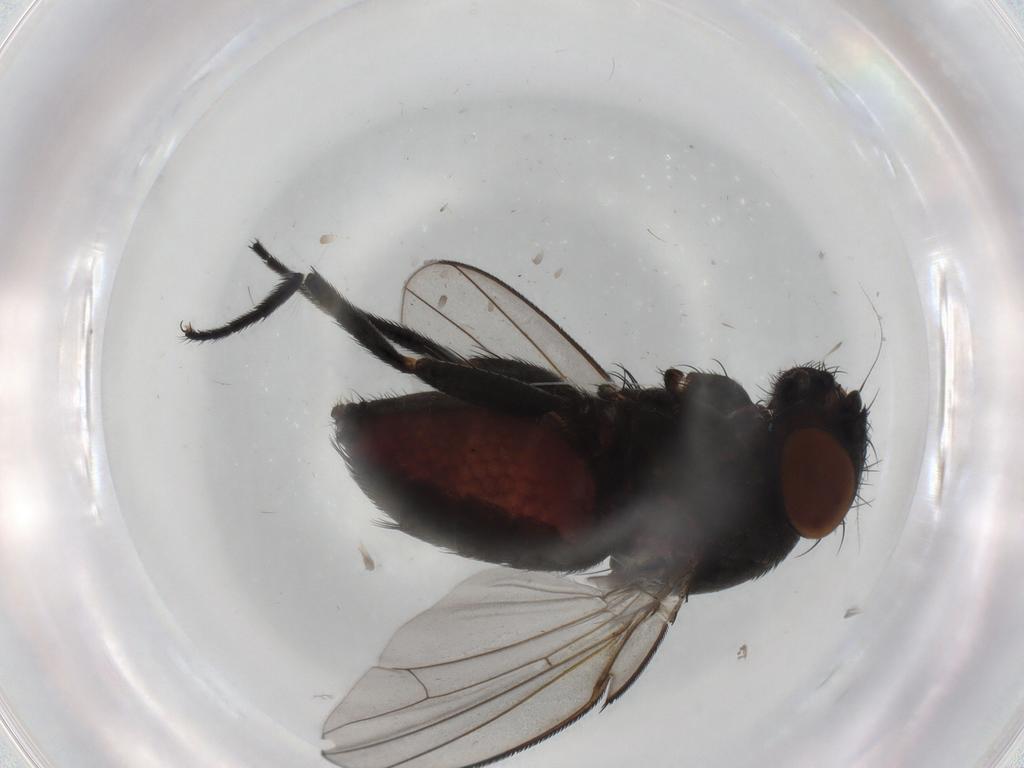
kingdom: Animalia
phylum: Arthropoda
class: Insecta
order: Diptera
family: Milichiidae
